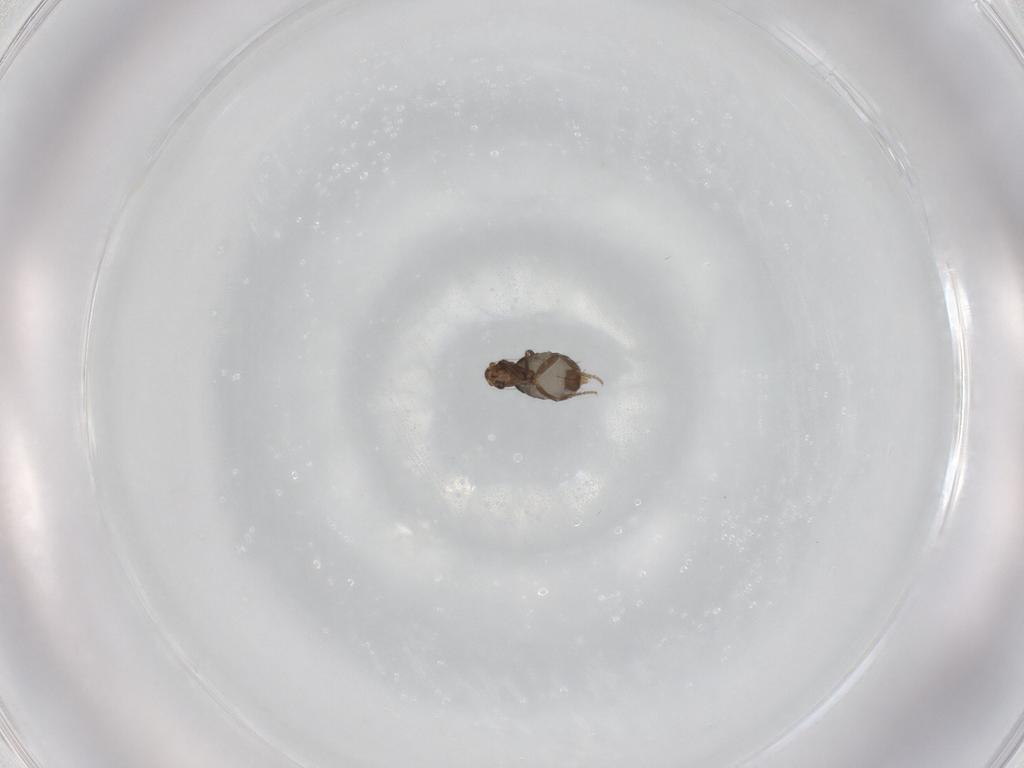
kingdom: Animalia
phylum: Arthropoda
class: Insecta
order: Diptera
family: Phoridae
